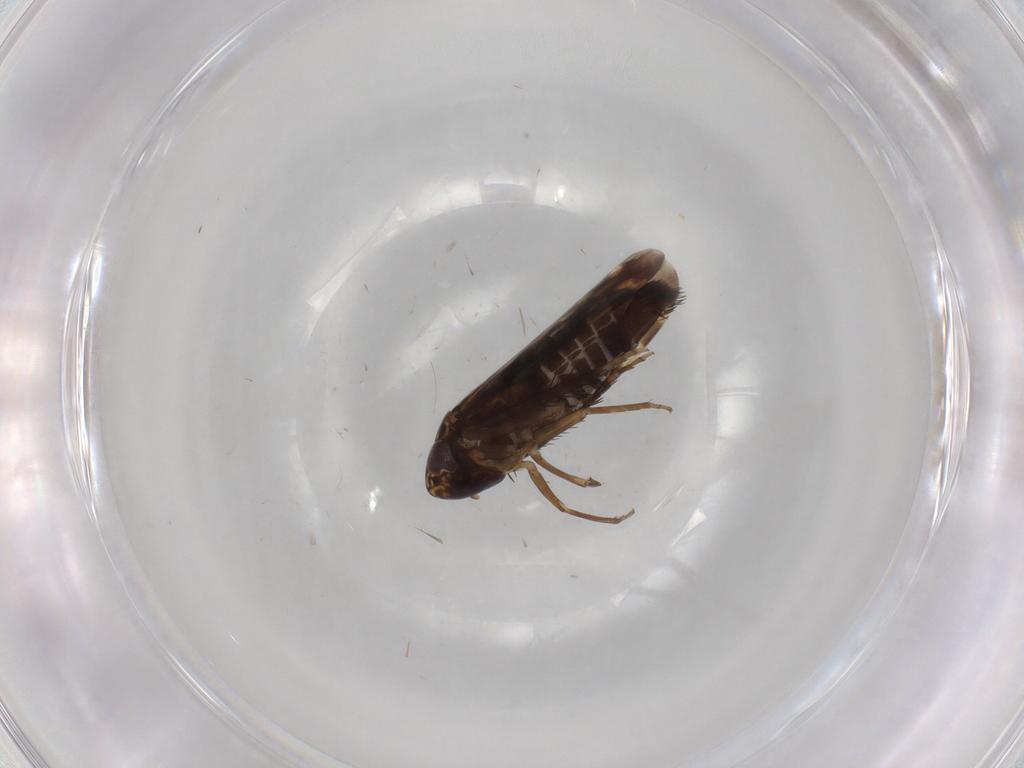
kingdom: Animalia
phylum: Arthropoda
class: Insecta
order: Hemiptera
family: Cicadellidae
